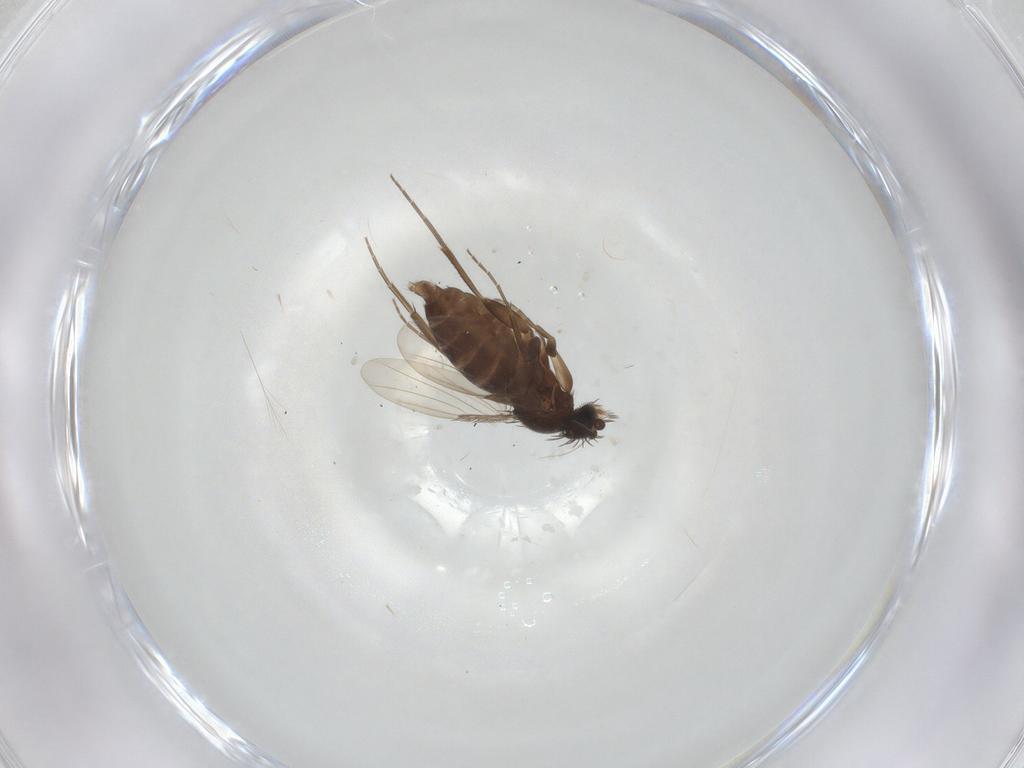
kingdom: Animalia
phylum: Arthropoda
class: Insecta
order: Diptera
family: Phoridae
